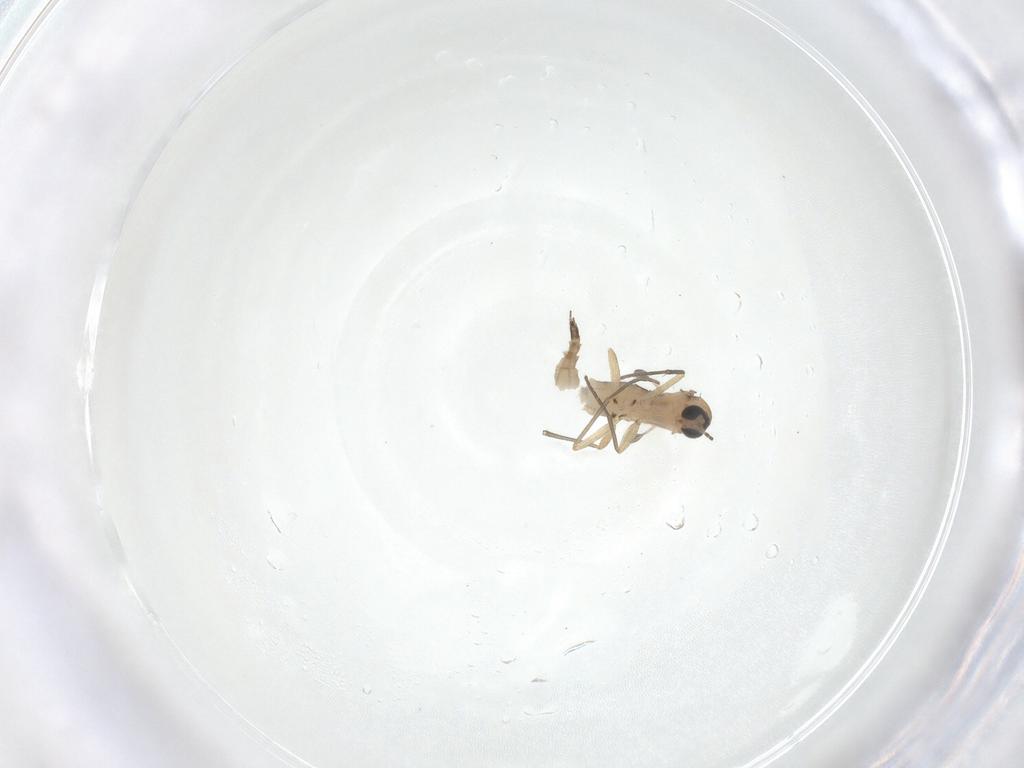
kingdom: Animalia
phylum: Arthropoda
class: Insecta
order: Diptera
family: Sciaridae
